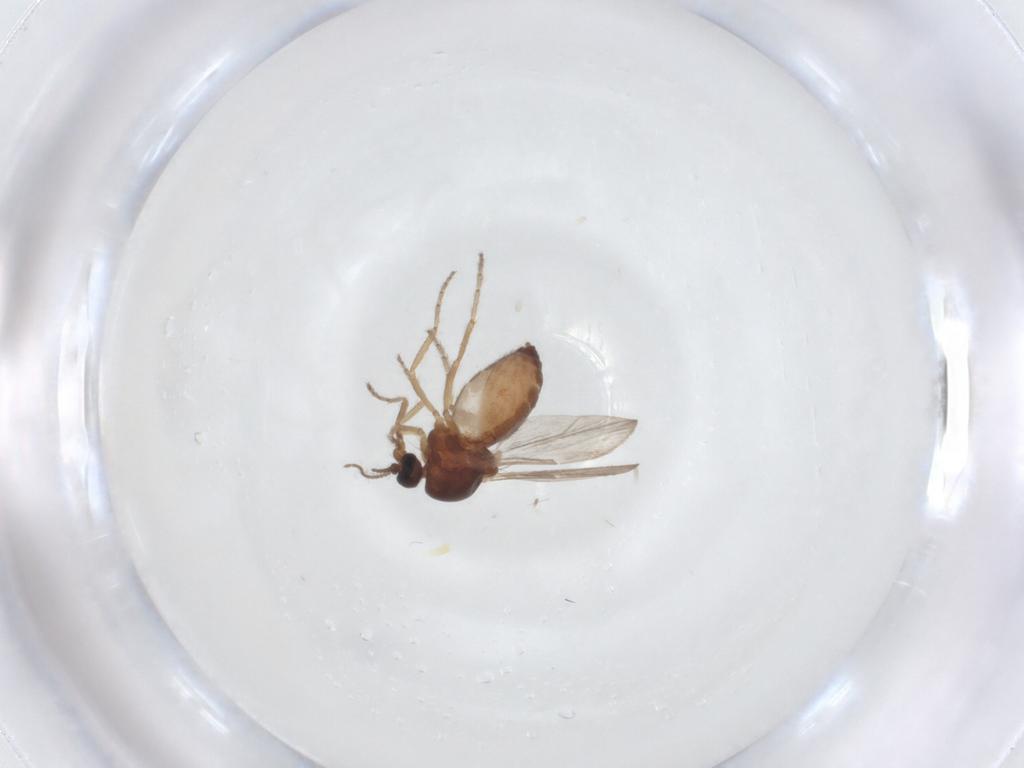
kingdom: Animalia
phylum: Arthropoda
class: Insecta
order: Diptera
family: Ceratopogonidae
